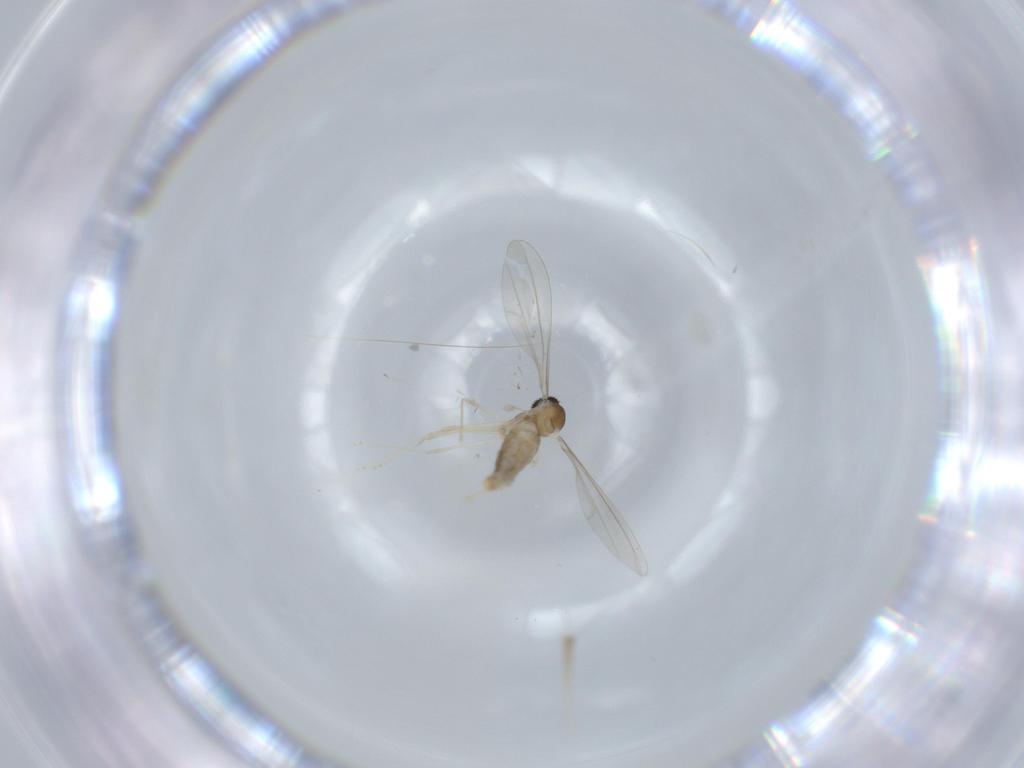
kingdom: Animalia
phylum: Arthropoda
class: Insecta
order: Diptera
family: Cecidomyiidae
